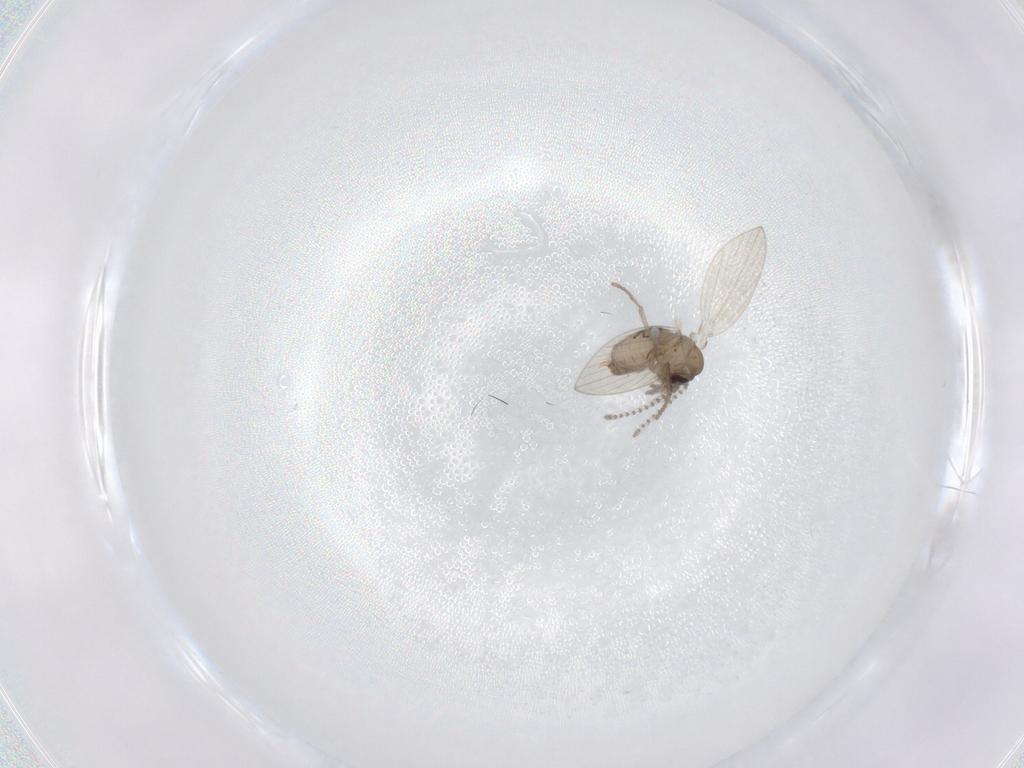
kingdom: Animalia
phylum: Arthropoda
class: Insecta
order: Diptera
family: Psychodidae
